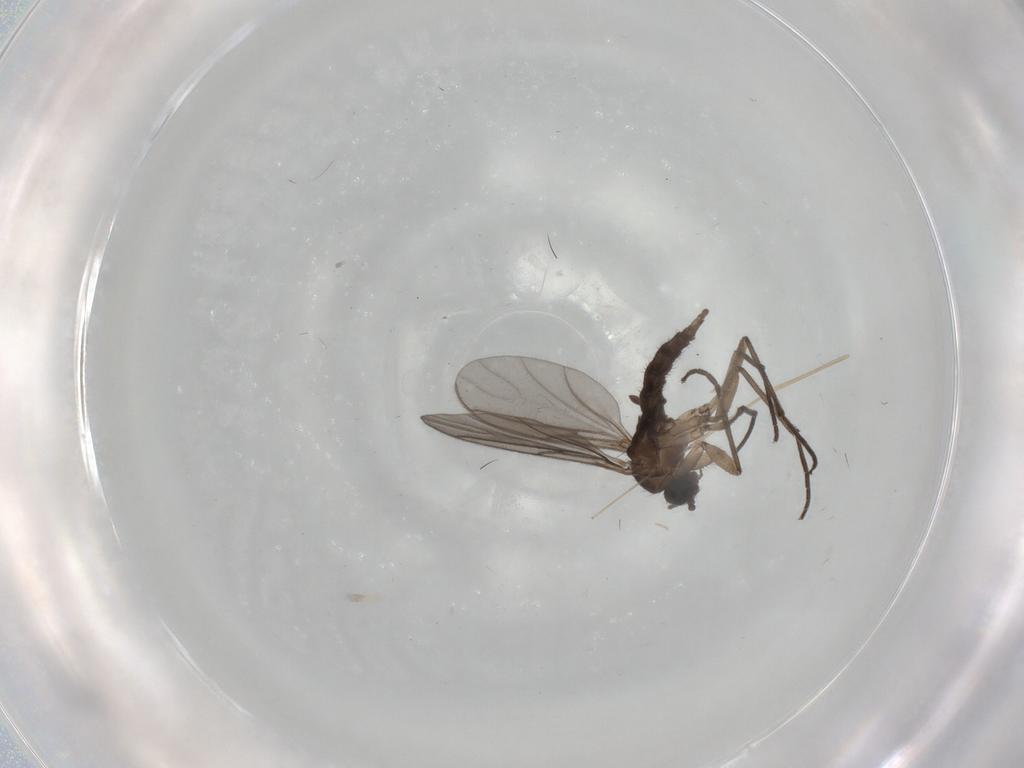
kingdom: Animalia
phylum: Arthropoda
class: Insecta
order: Diptera
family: Cecidomyiidae
